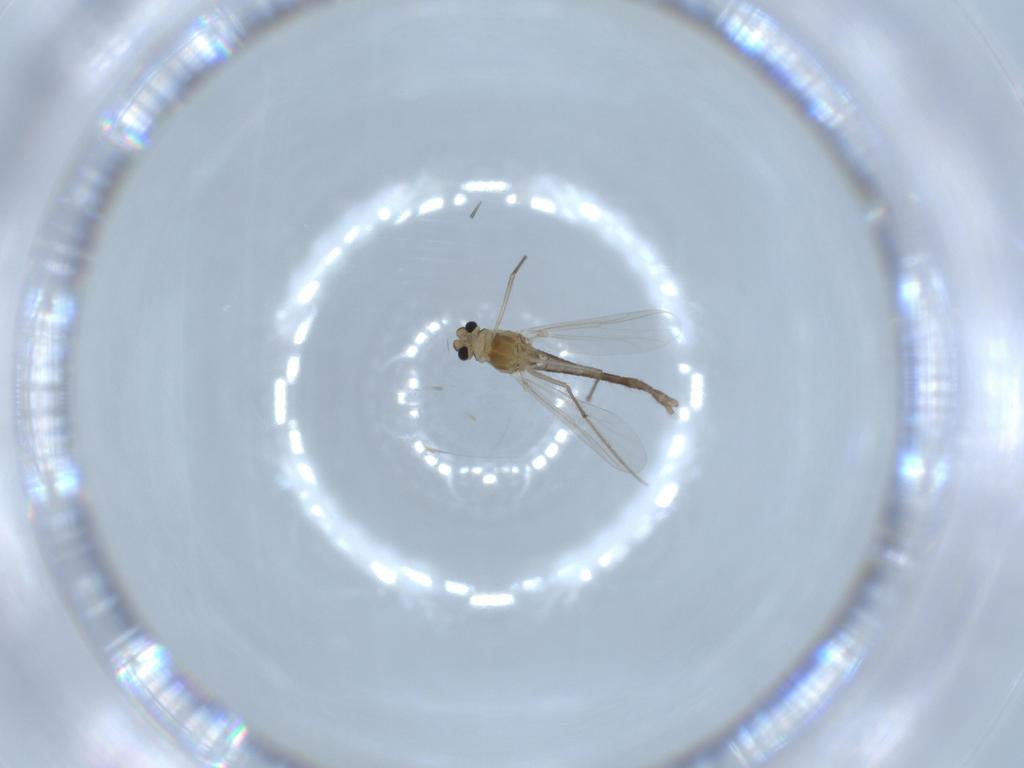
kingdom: Animalia
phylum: Arthropoda
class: Insecta
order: Diptera
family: Chironomidae
